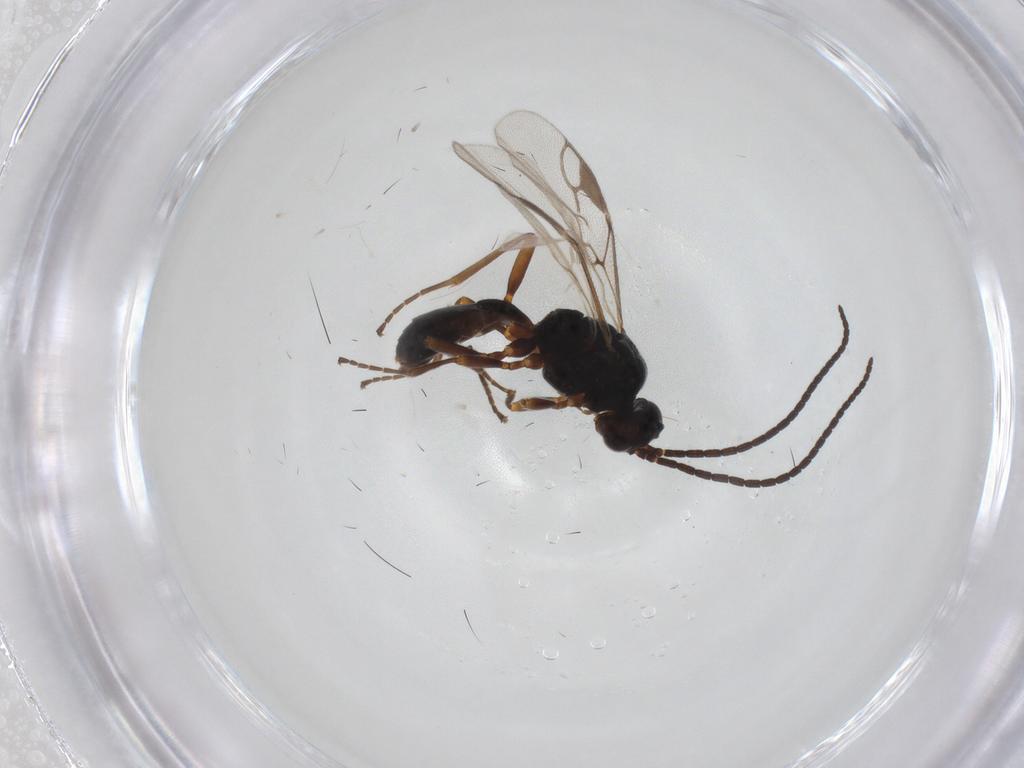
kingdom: Animalia
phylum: Arthropoda
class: Insecta
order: Hymenoptera
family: Braconidae
